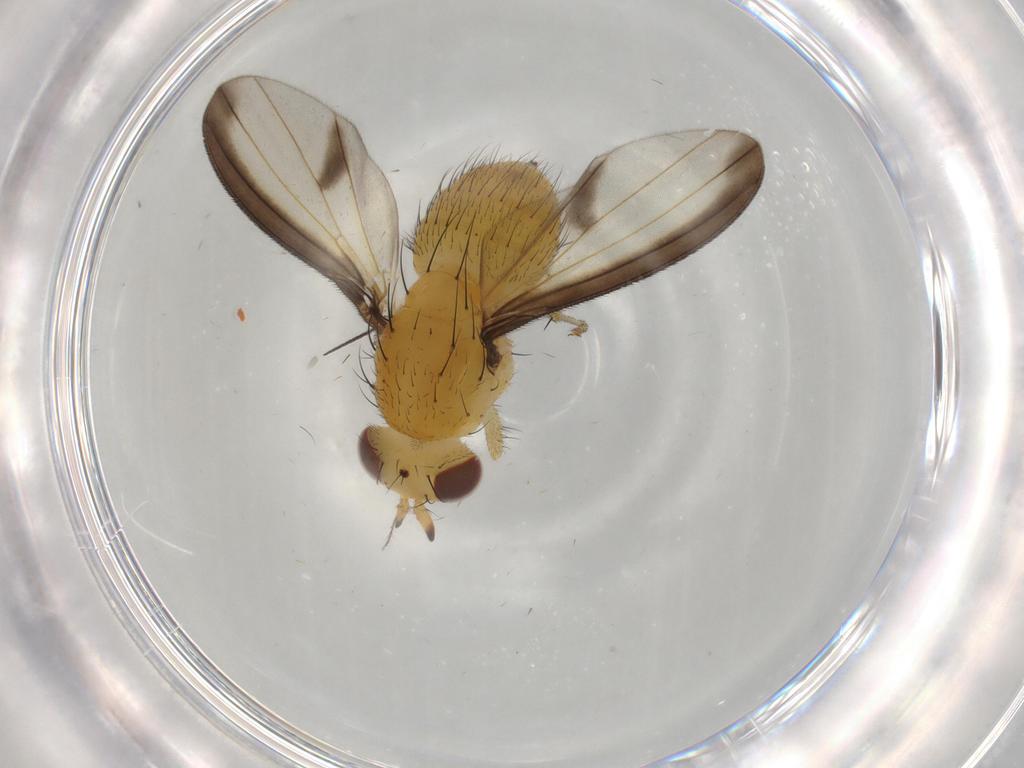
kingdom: Animalia
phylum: Arthropoda
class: Insecta
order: Diptera
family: Lauxaniidae
